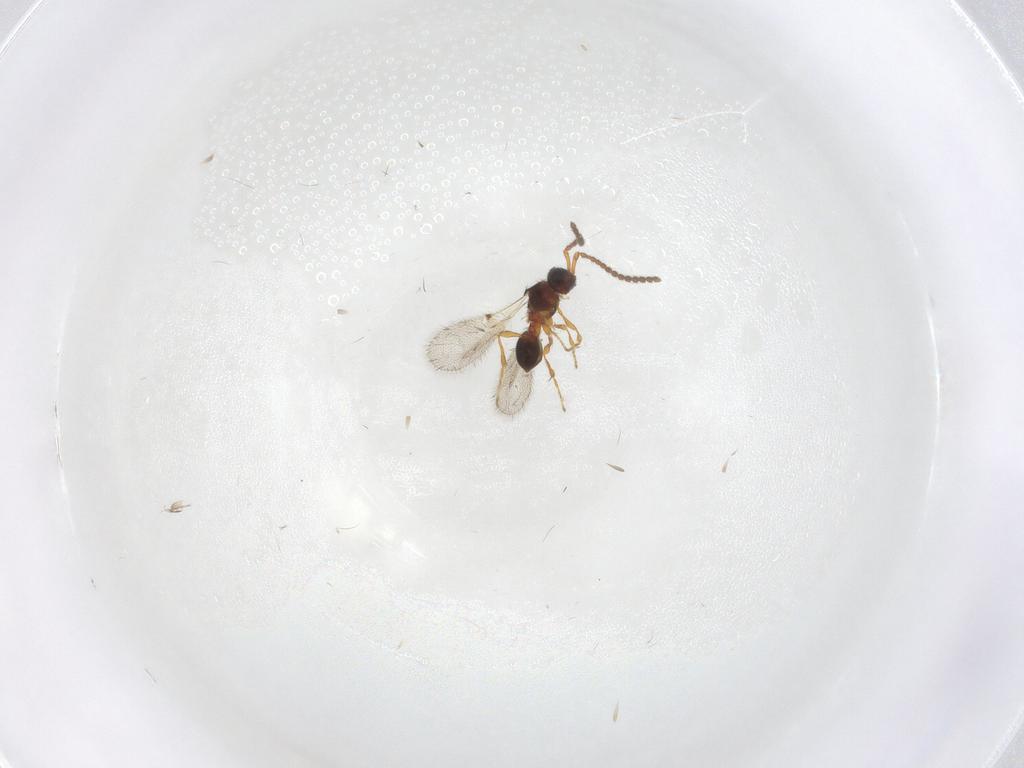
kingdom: Animalia
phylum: Arthropoda
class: Insecta
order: Hymenoptera
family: Diapriidae
